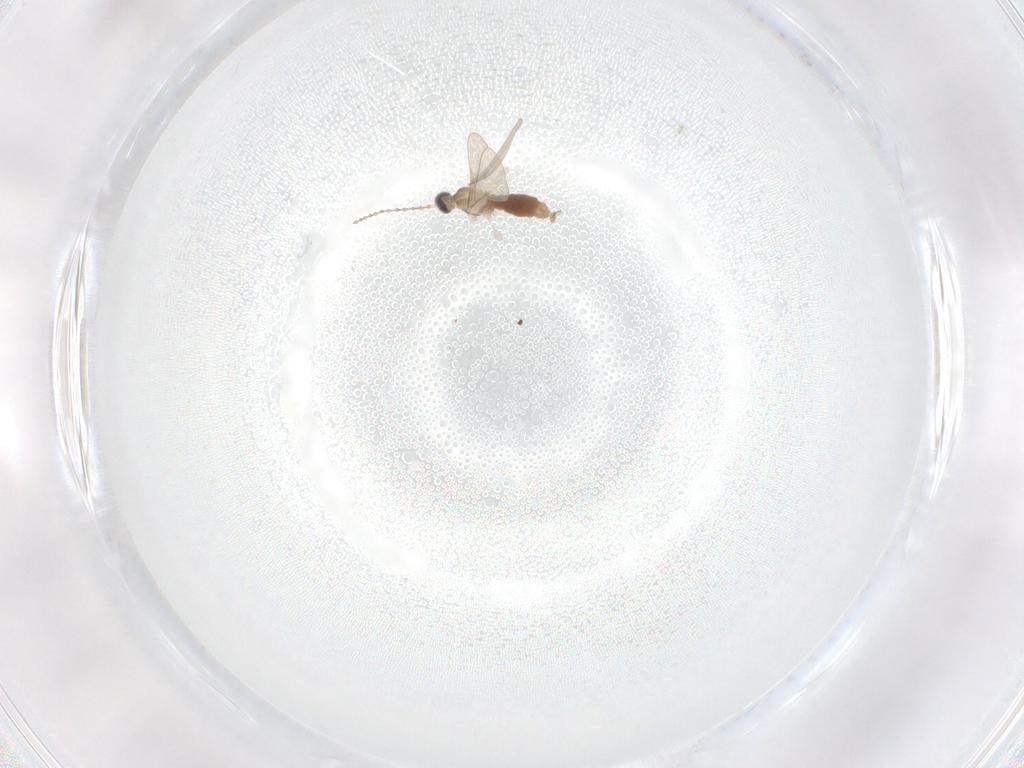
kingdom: Animalia
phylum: Arthropoda
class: Insecta
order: Diptera
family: Cecidomyiidae
